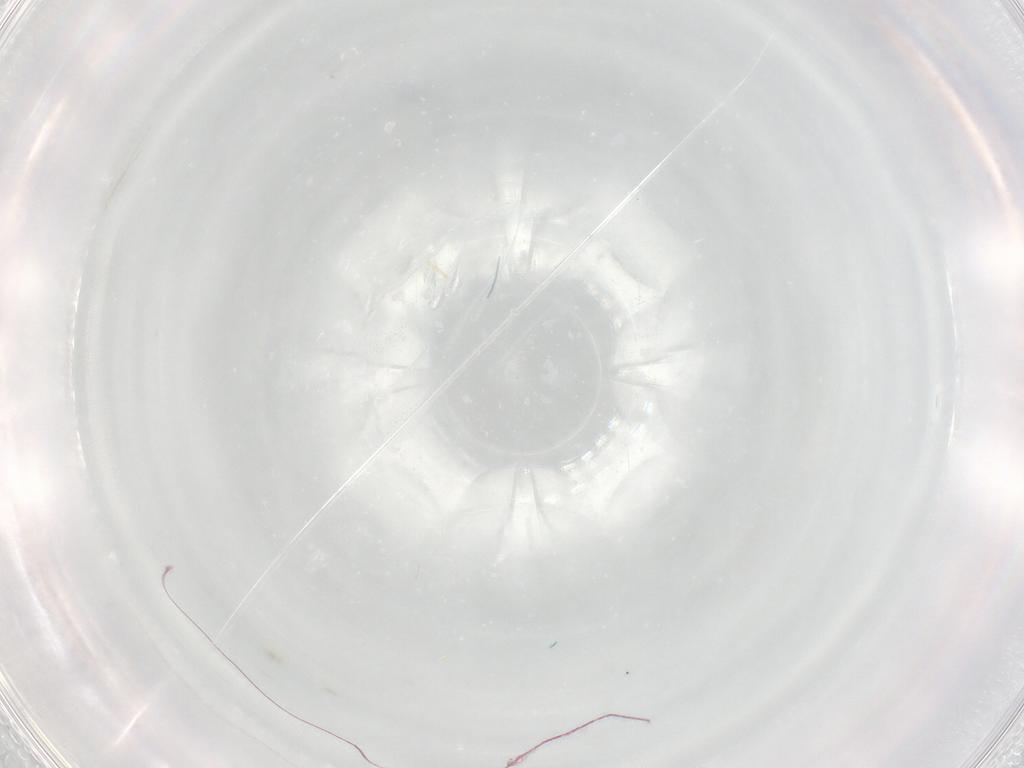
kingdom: Animalia
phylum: Arthropoda
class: Insecta
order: Lepidoptera
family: Psychidae
